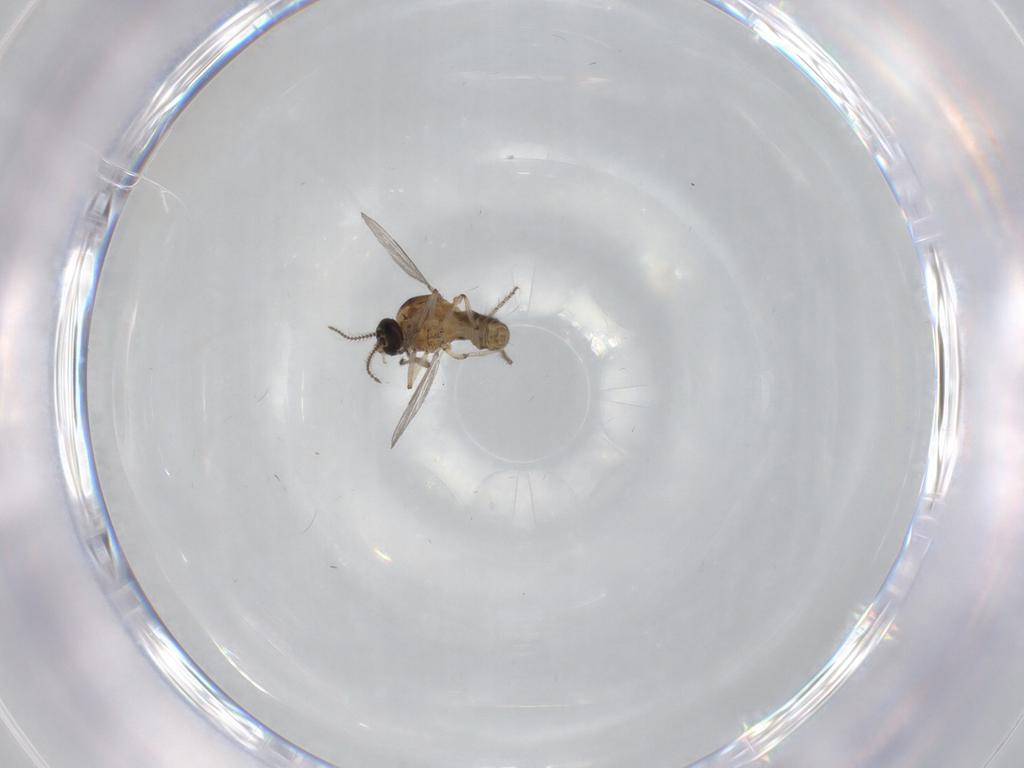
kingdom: Animalia
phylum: Arthropoda
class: Insecta
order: Diptera
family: Ceratopogonidae
